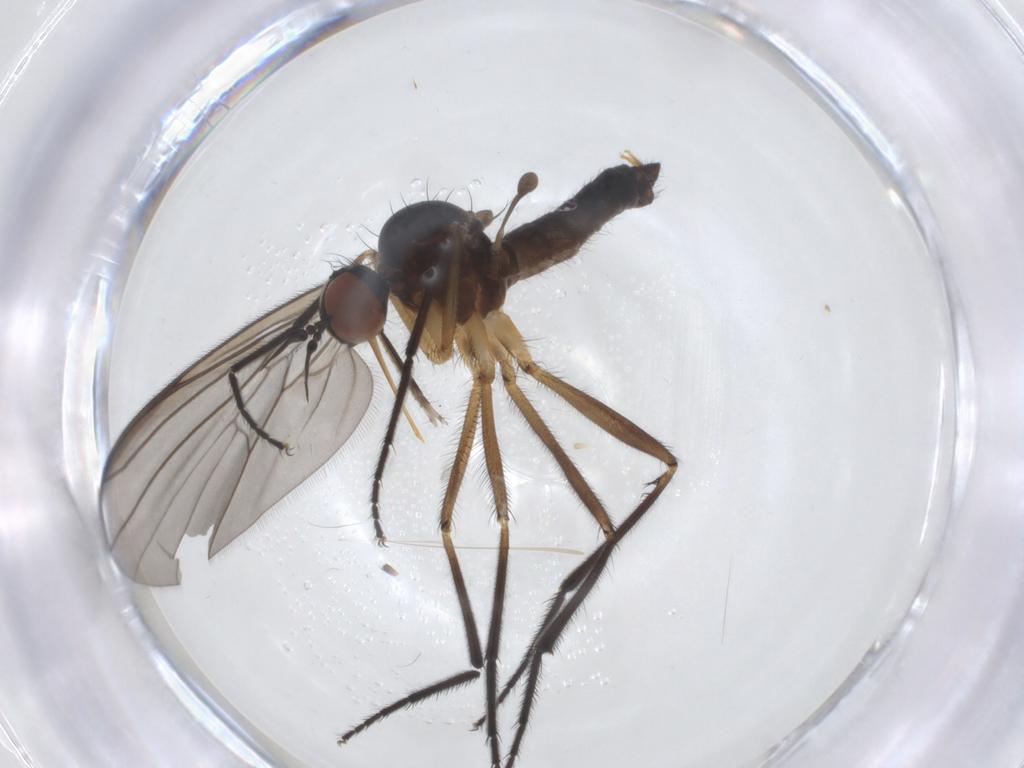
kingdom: Animalia
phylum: Arthropoda
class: Insecta
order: Diptera
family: Empididae
